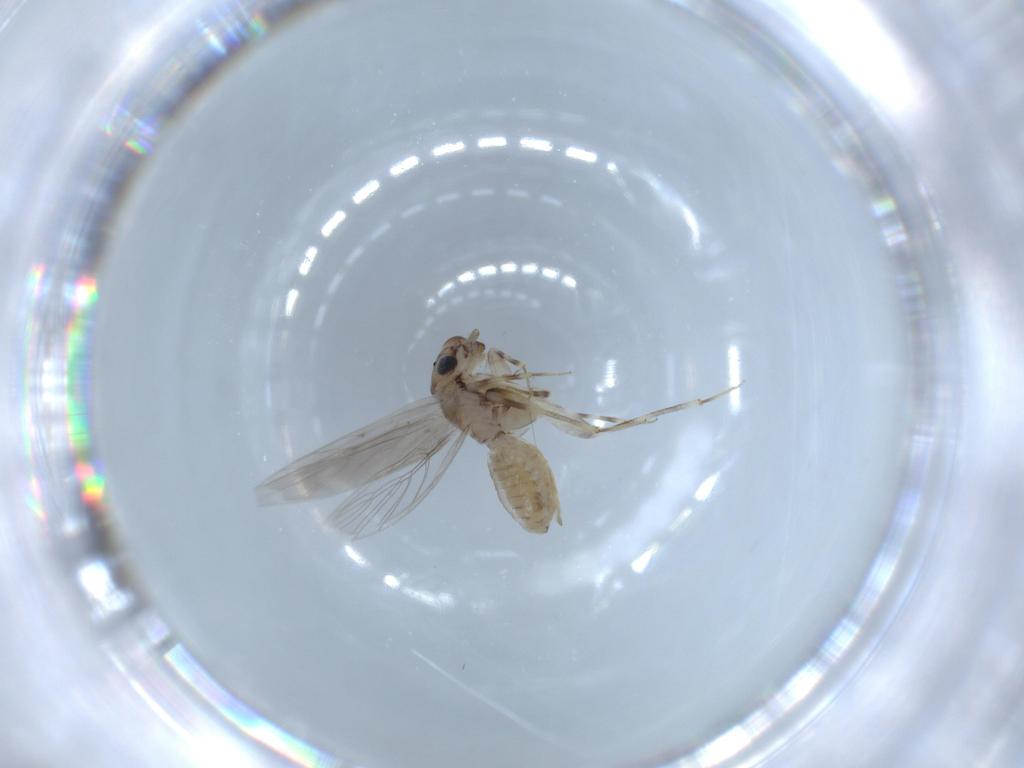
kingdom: Animalia
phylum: Arthropoda
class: Insecta
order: Psocodea
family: Lepidopsocidae
